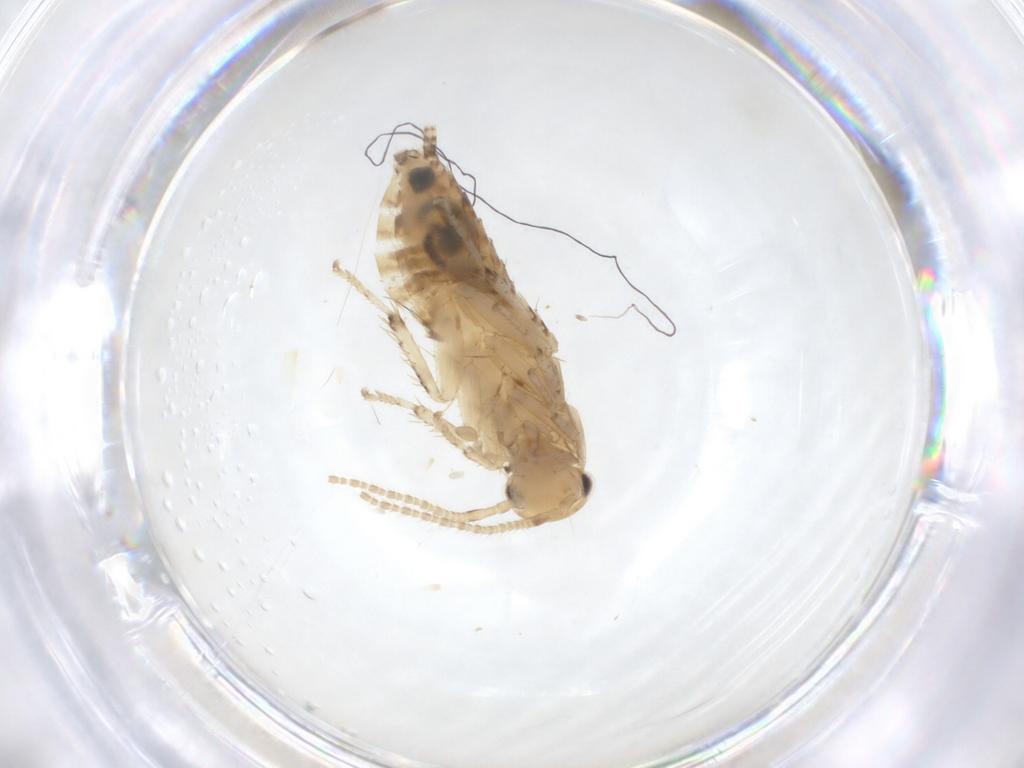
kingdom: Animalia
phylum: Arthropoda
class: Insecta
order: Blattodea
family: Pseudophyllodromiidae
